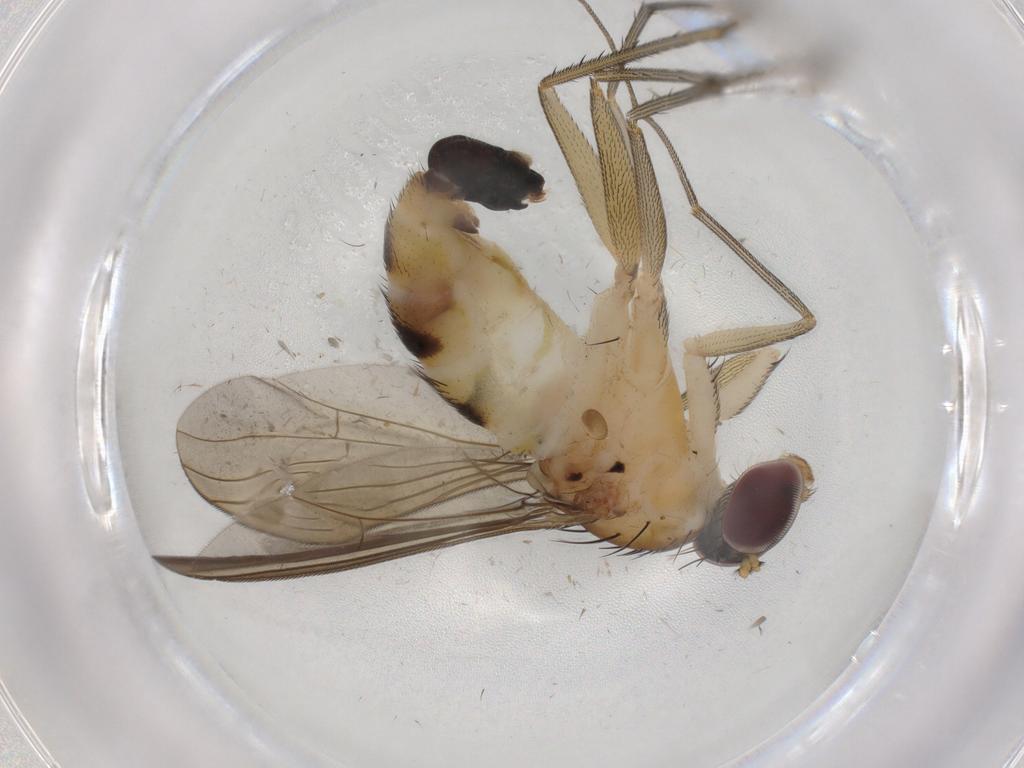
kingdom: Animalia
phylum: Arthropoda
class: Insecta
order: Diptera
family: Dolichopodidae
